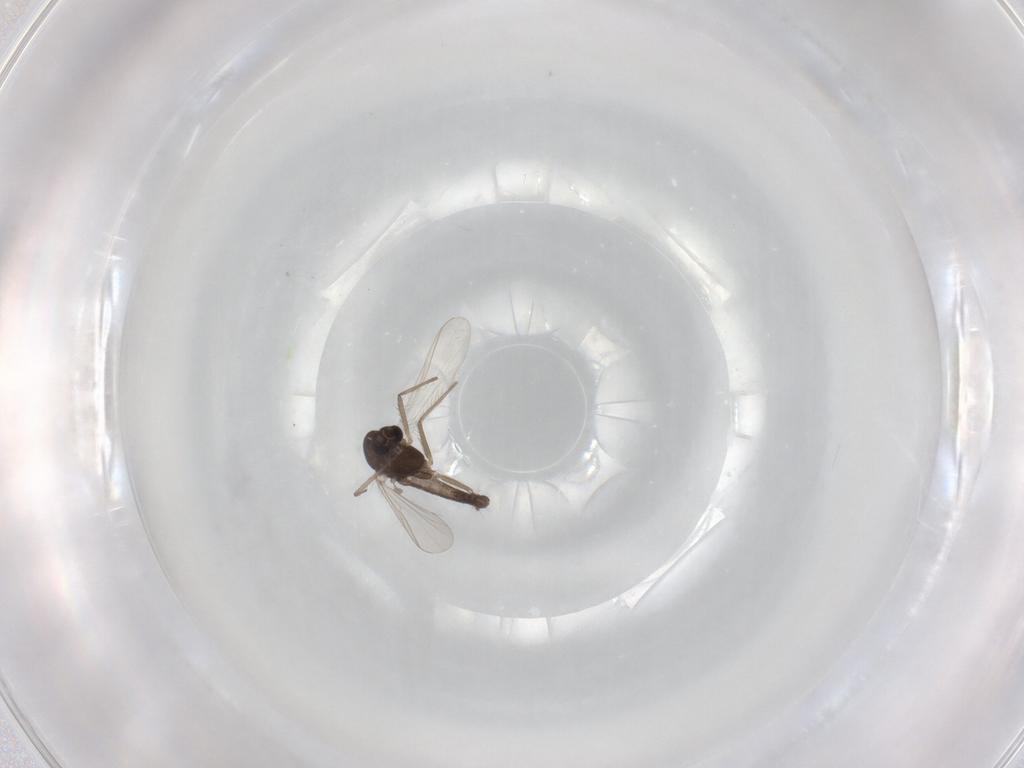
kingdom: Animalia
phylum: Arthropoda
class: Insecta
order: Diptera
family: Chironomidae
